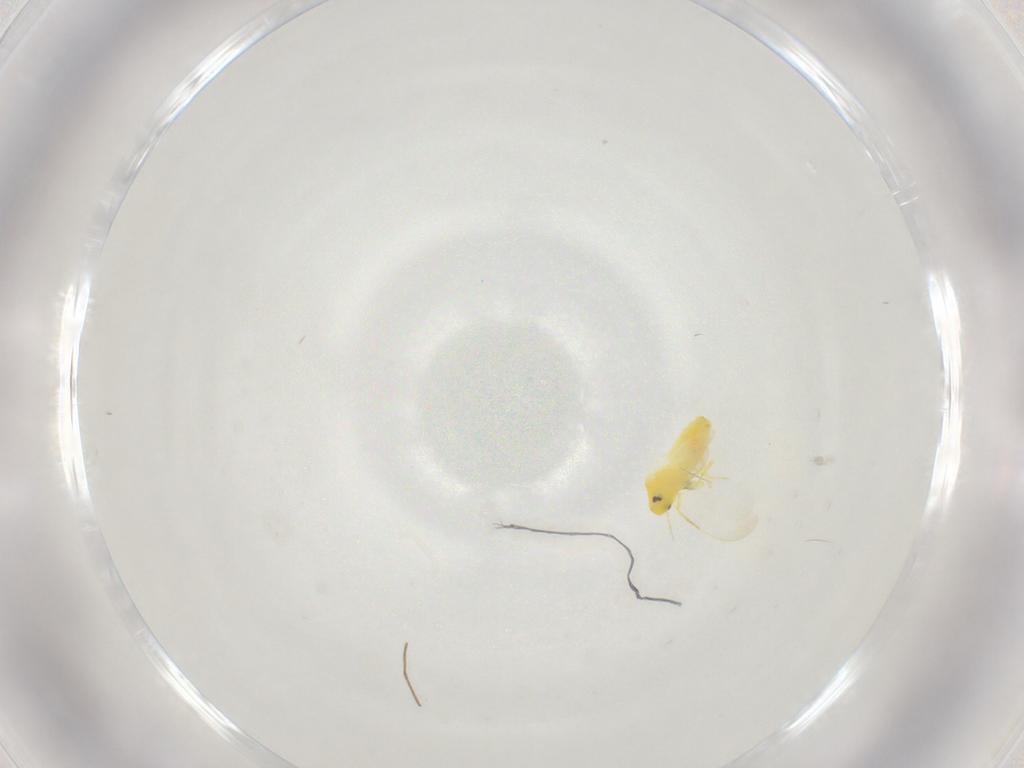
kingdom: Animalia
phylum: Arthropoda
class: Insecta
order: Hemiptera
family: Aleyrodidae
